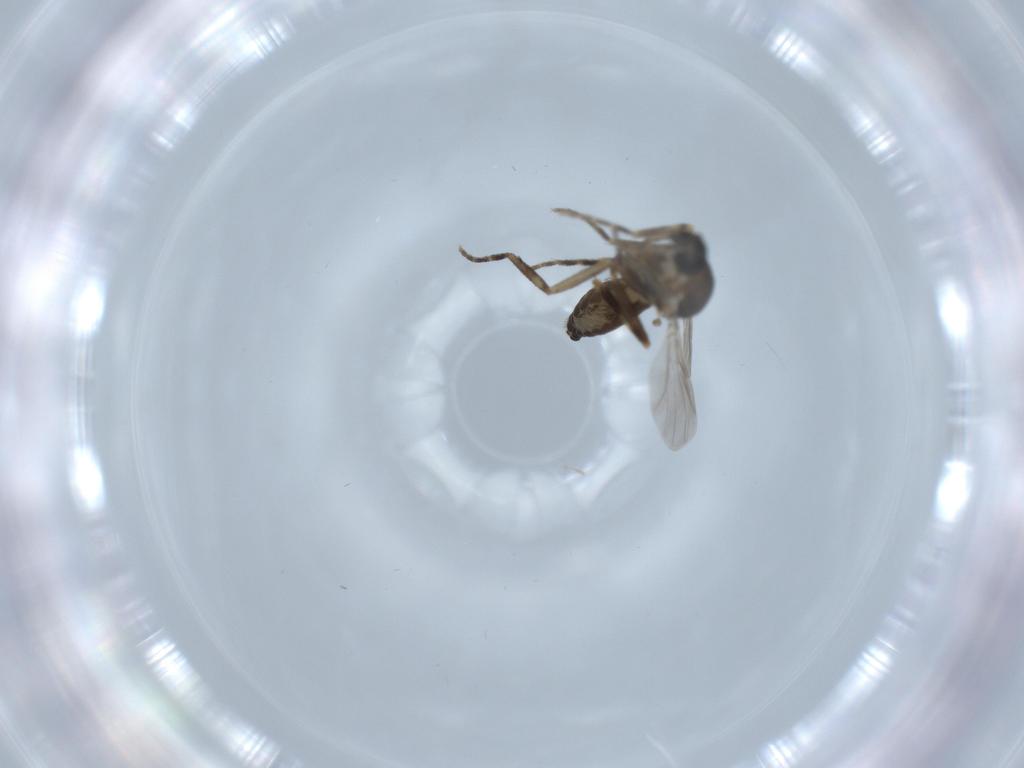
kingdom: Animalia
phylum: Arthropoda
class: Insecta
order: Diptera
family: Ceratopogonidae
